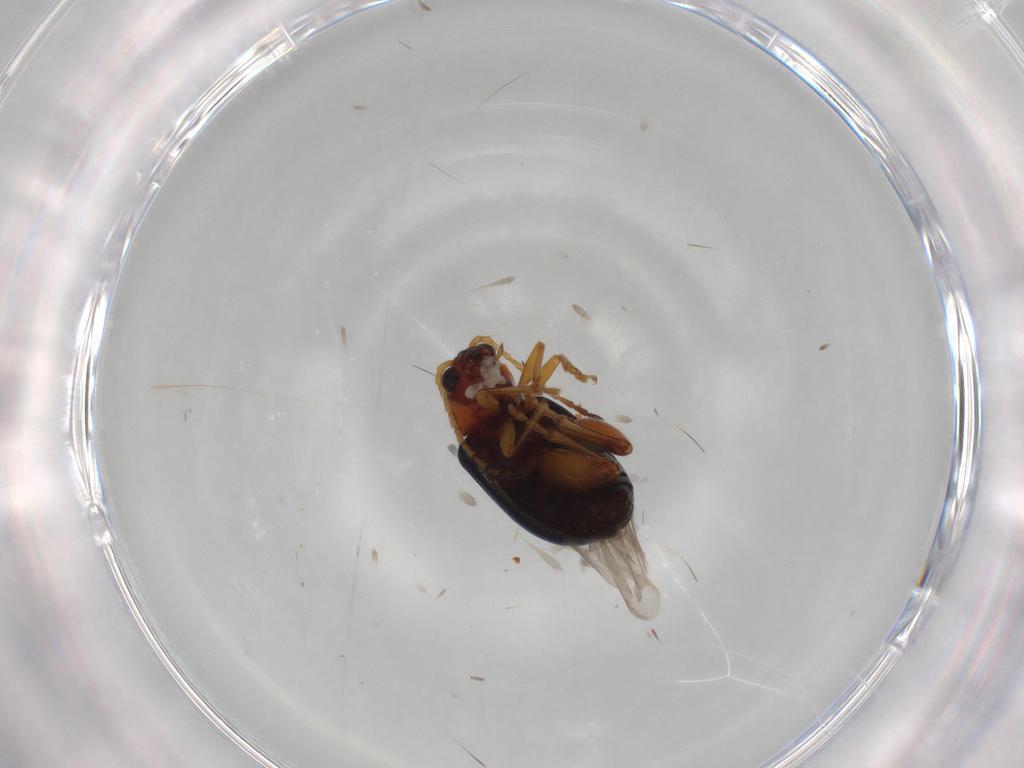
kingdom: Animalia
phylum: Arthropoda
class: Insecta
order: Coleoptera
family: Chrysomelidae
